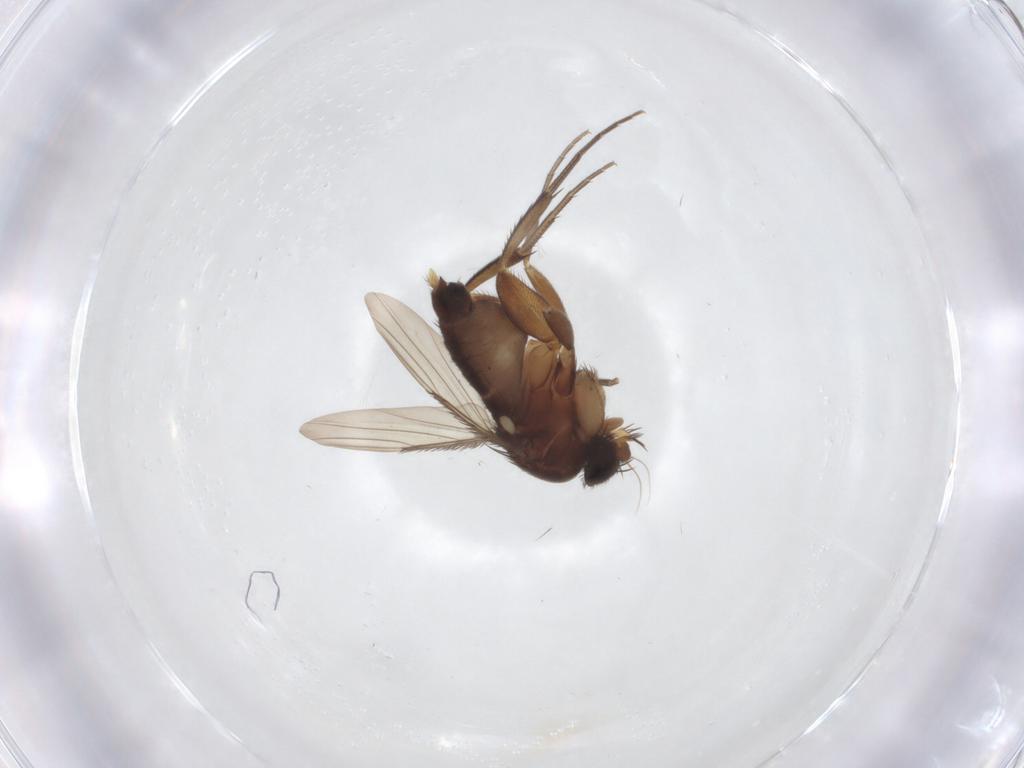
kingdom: Animalia
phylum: Arthropoda
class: Insecta
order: Diptera
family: Phoridae
